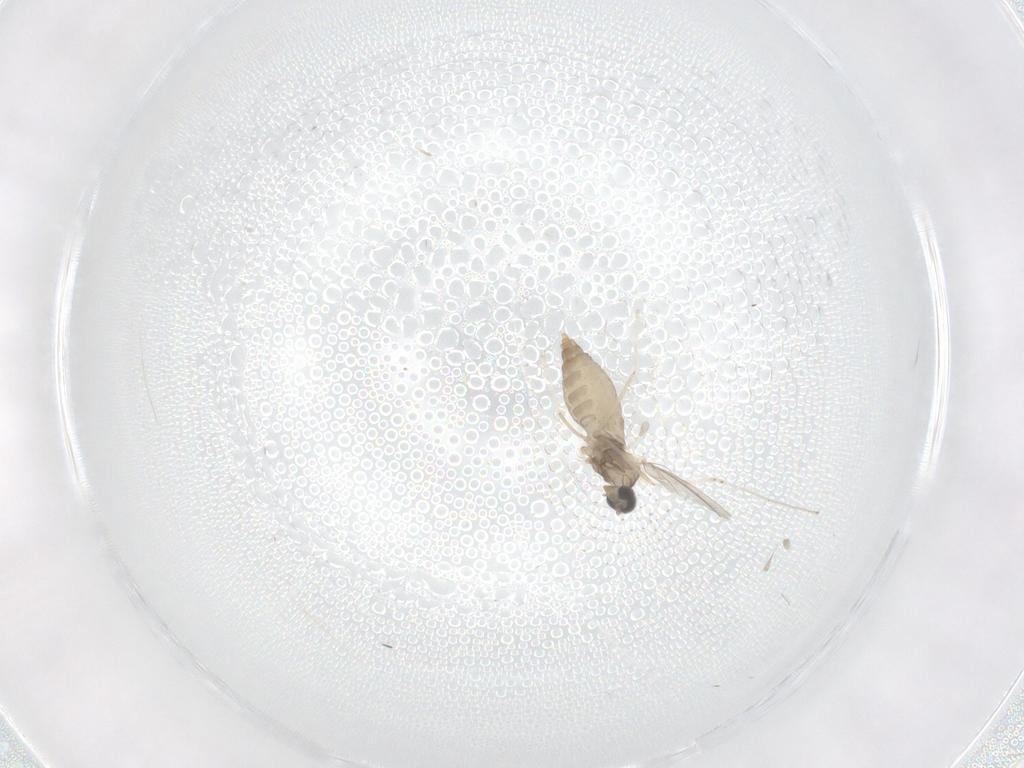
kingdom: Animalia
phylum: Arthropoda
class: Insecta
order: Diptera
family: Cecidomyiidae
